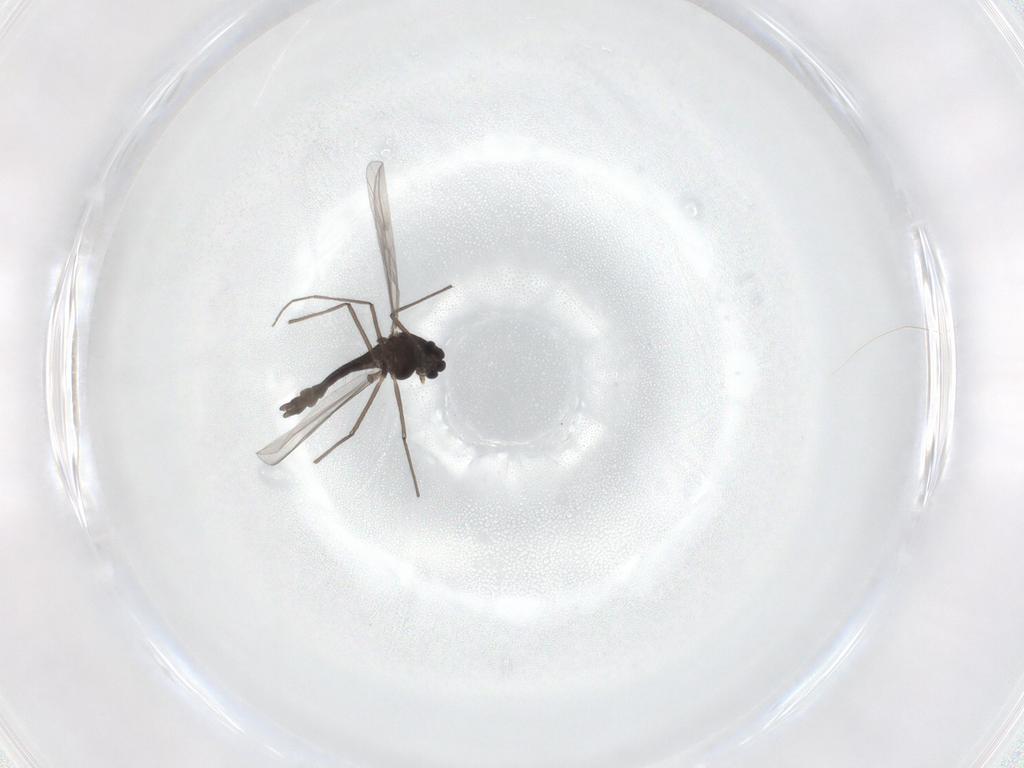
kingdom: Animalia
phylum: Arthropoda
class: Insecta
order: Diptera
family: Chironomidae
